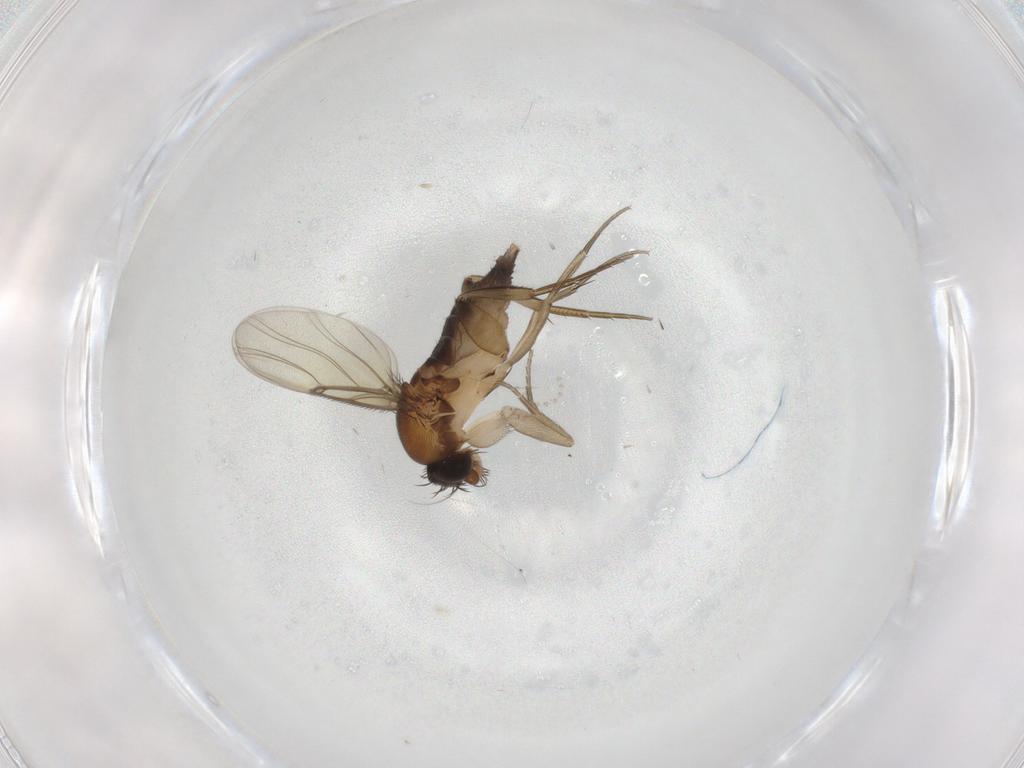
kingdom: Animalia
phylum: Arthropoda
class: Insecta
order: Diptera
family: Phoridae
